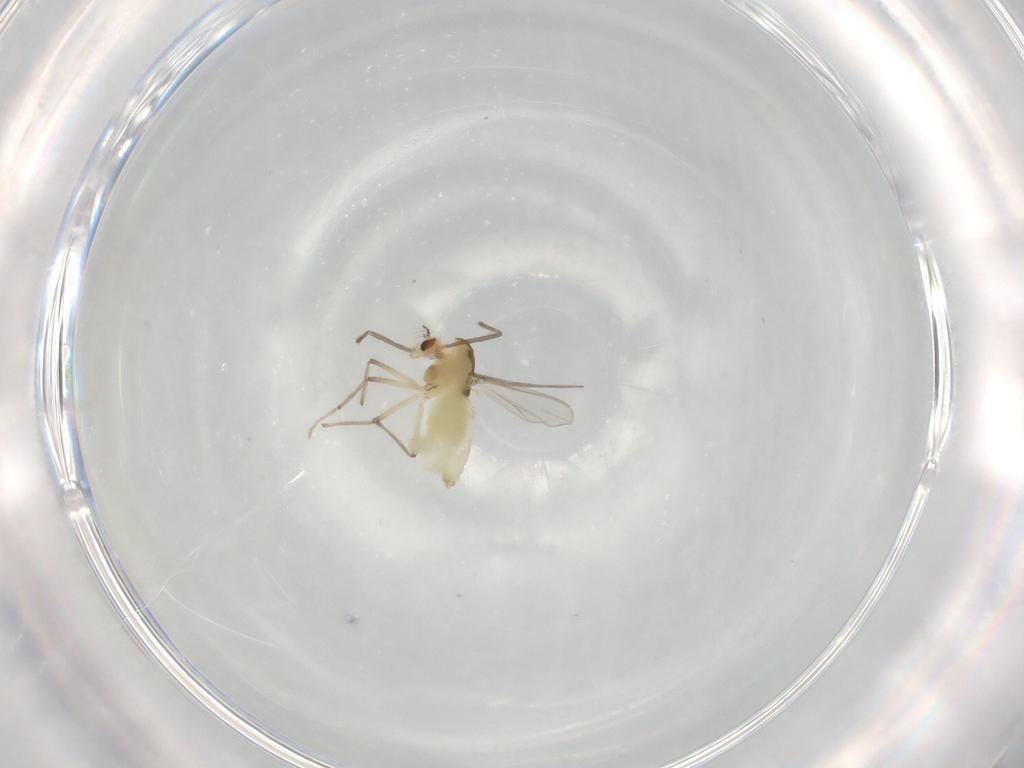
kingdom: Animalia
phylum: Arthropoda
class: Insecta
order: Diptera
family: Chironomidae
